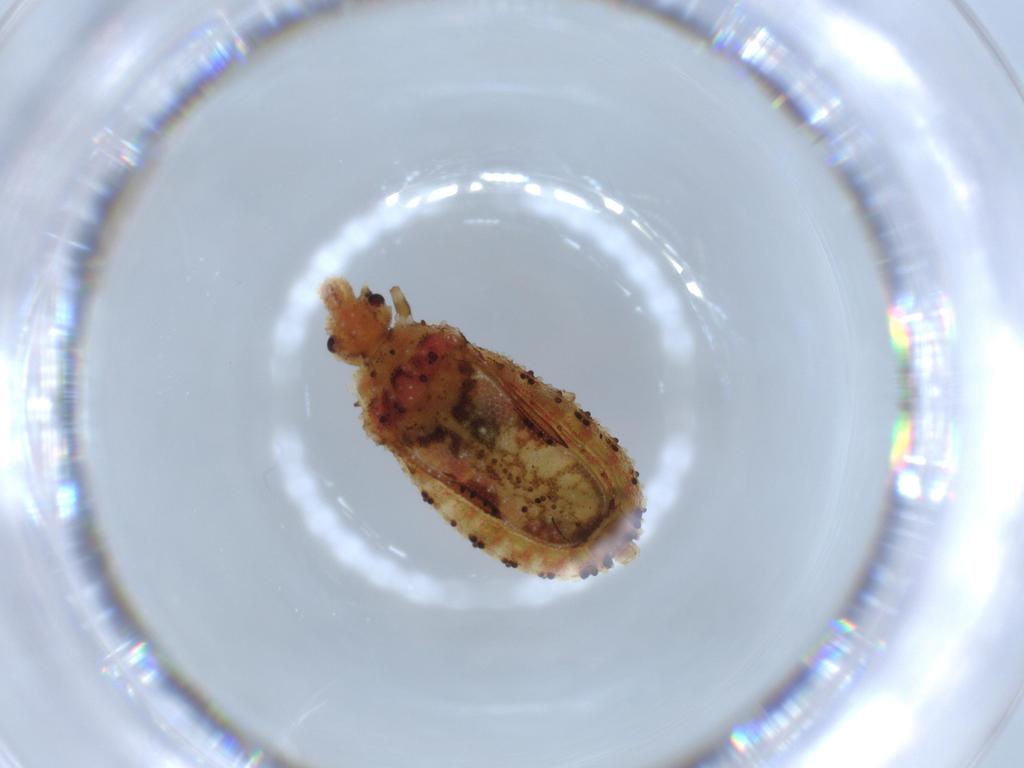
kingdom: Animalia
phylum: Arthropoda
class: Insecta
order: Hemiptera
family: Aradidae
